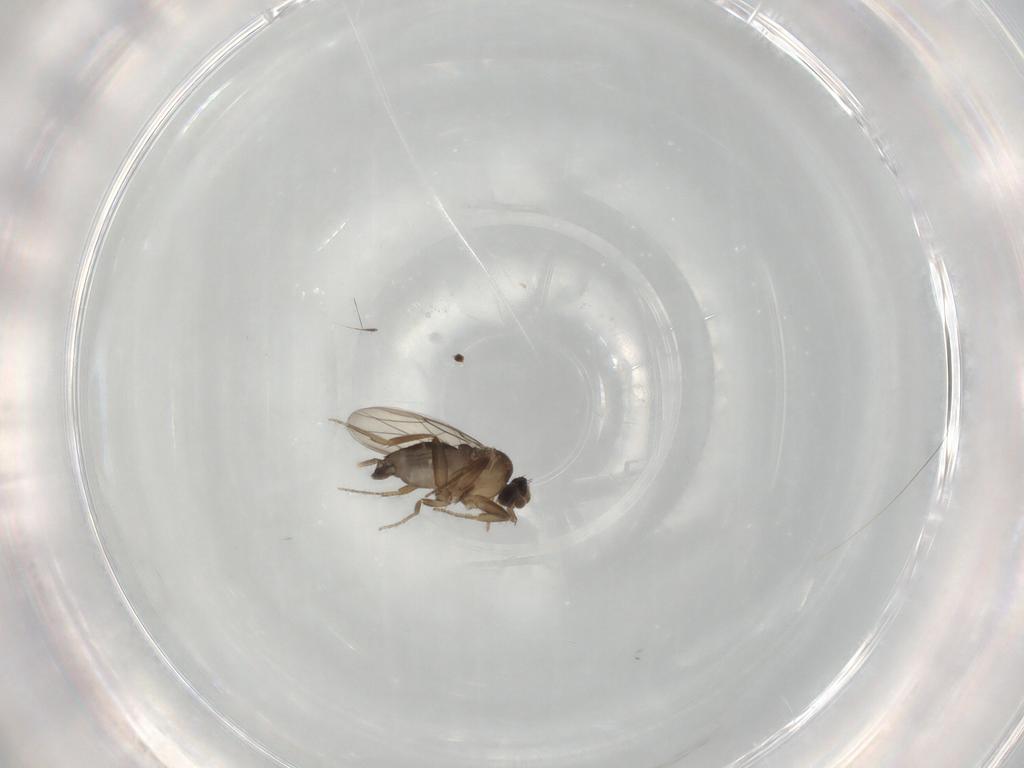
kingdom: Animalia
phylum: Arthropoda
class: Insecta
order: Diptera
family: Phoridae
